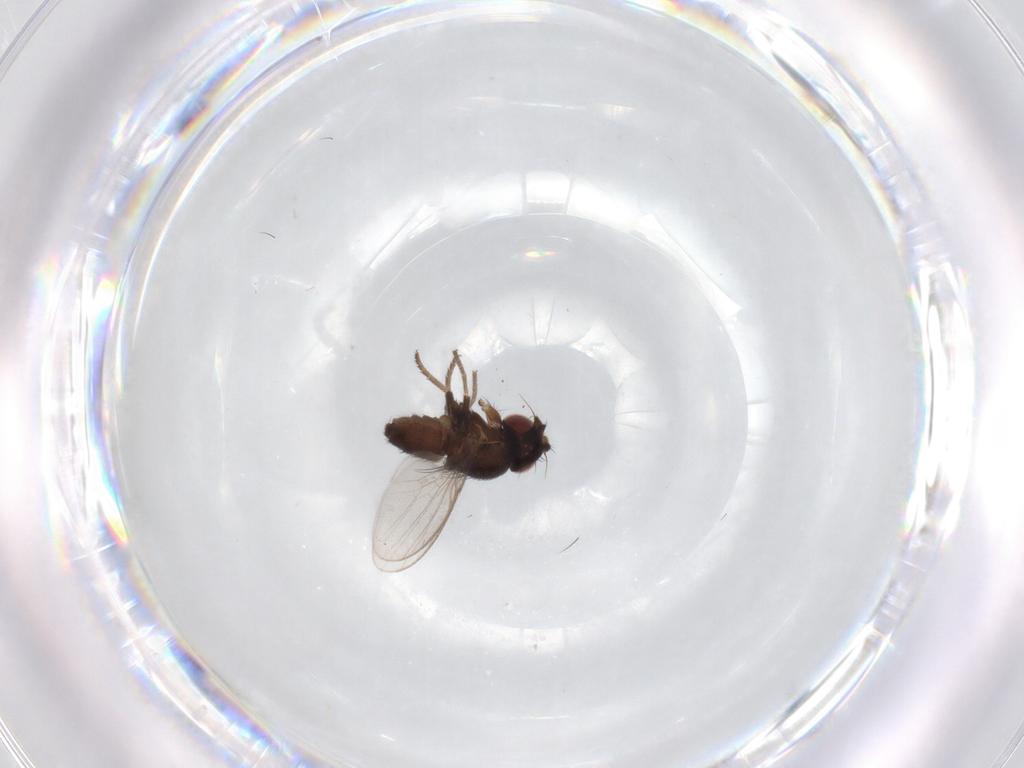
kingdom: Animalia
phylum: Arthropoda
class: Insecta
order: Diptera
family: Milichiidae
